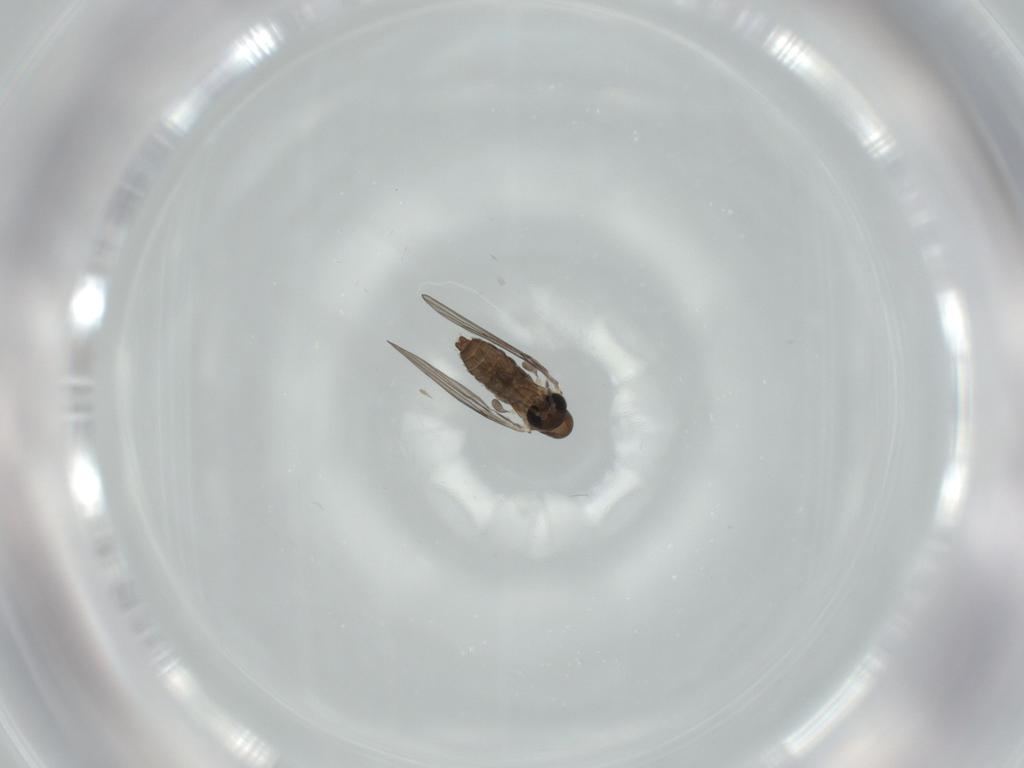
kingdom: Animalia
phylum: Arthropoda
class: Insecta
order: Diptera
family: Psychodidae
